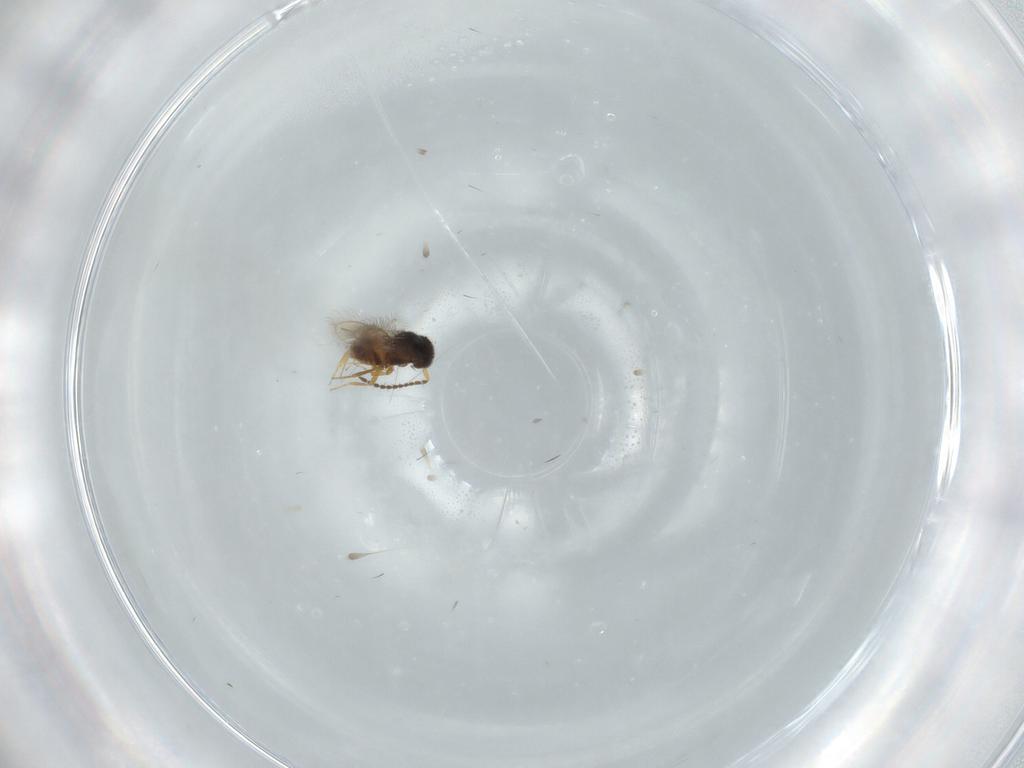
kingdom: Animalia
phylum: Arthropoda
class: Insecta
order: Hymenoptera
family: Scelionidae
